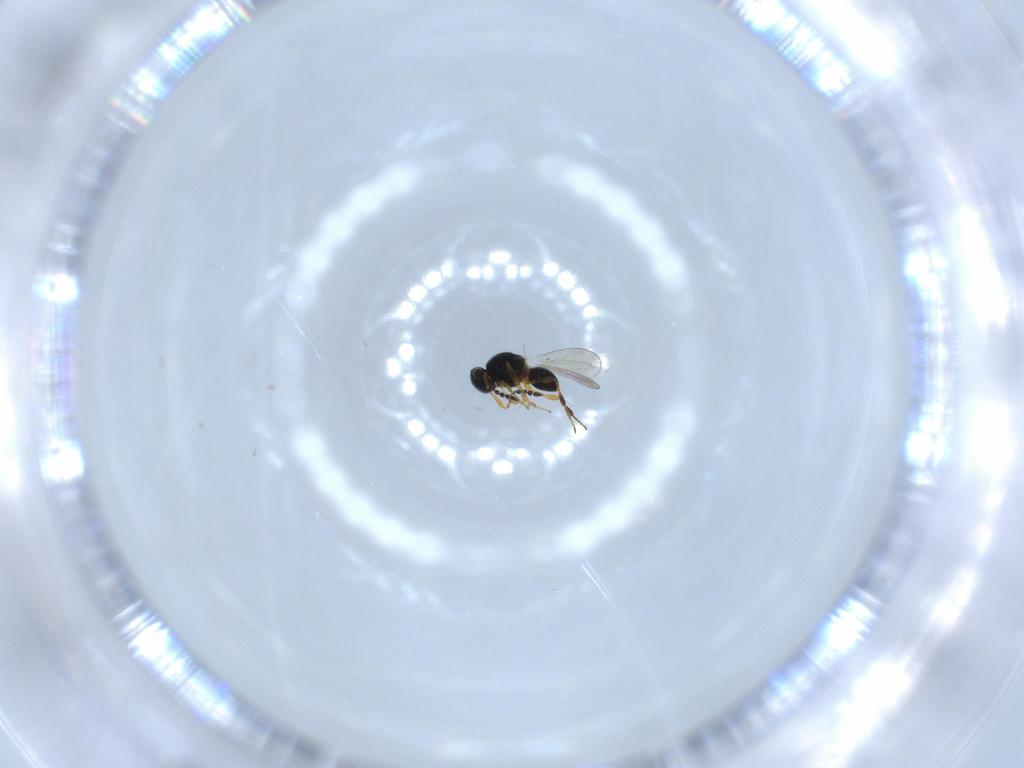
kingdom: Animalia
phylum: Arthropoda
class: Insecta
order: Hymenoptera
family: Platygastridae
